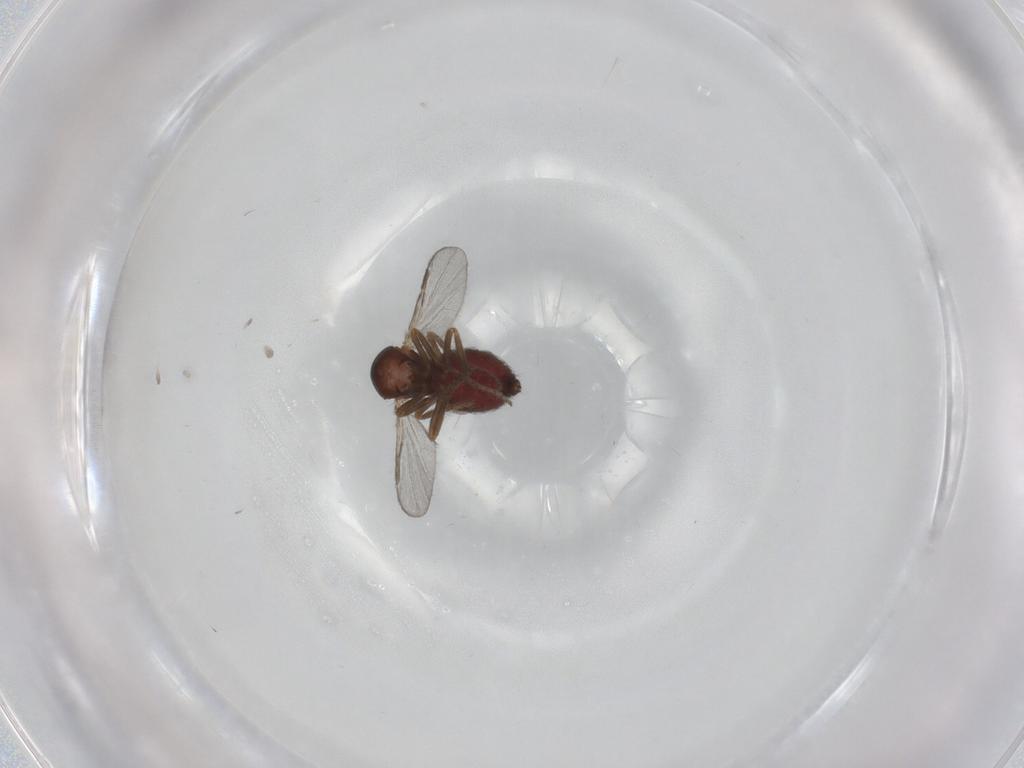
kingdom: Animalia
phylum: Arthropoda
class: Insecta
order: Diptera
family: Ceratopogonidae
